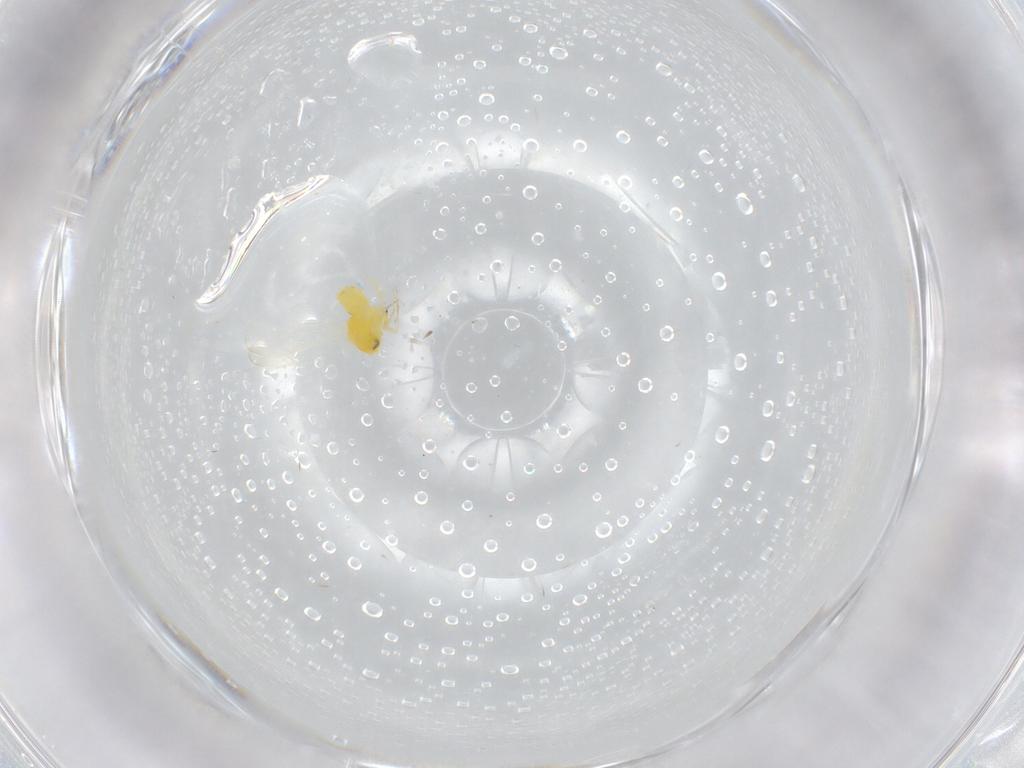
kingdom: Animalia
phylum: Arthropoda
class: Insecta
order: Hemiptera
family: Aleyrodidae
